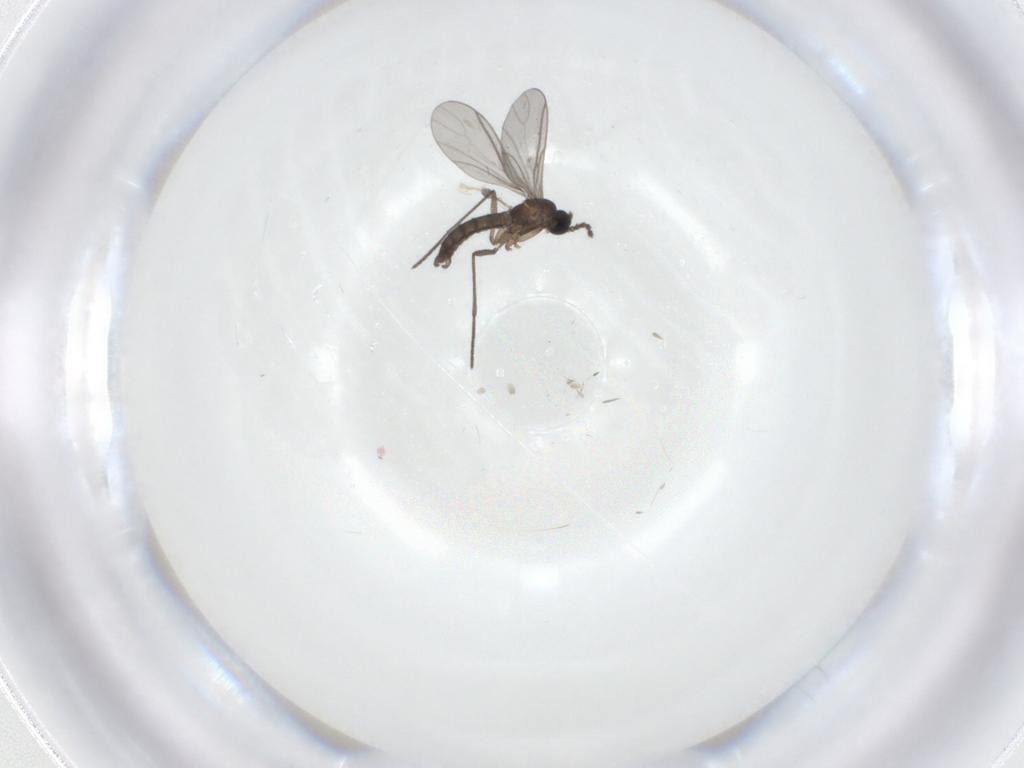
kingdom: Animalia
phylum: Arthropoda
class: Insecta
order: Diptera
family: Sciaridae
